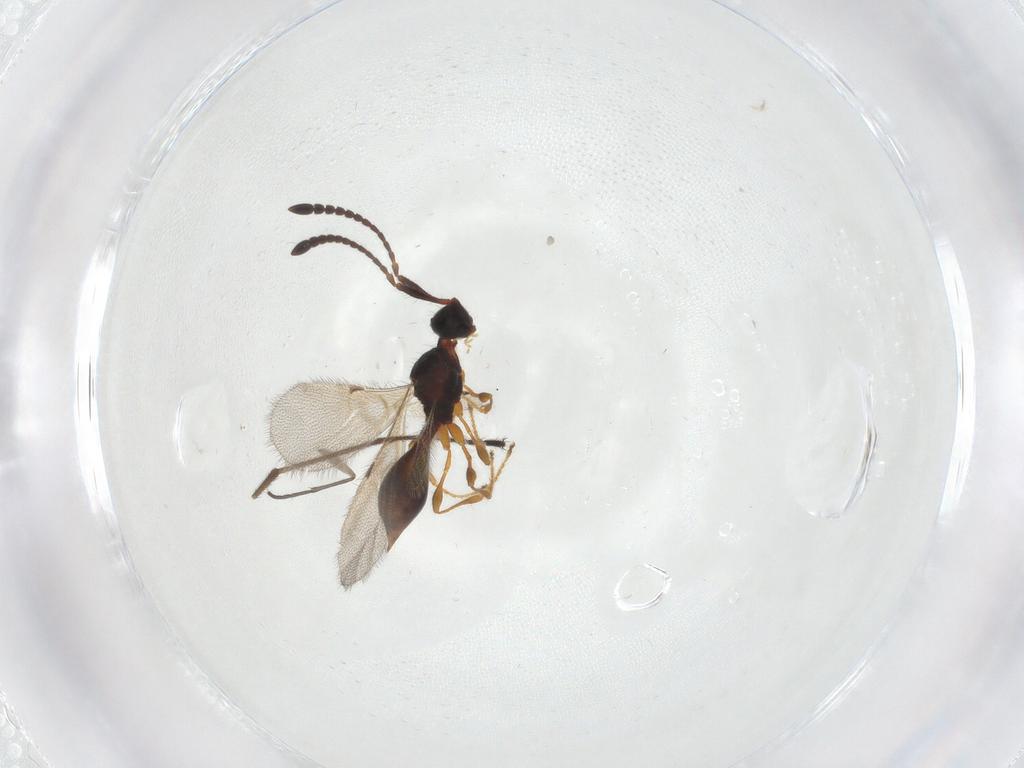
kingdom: Animalia
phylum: Arthropoda
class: Insecta
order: Hymenoptera
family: Diapriidae
